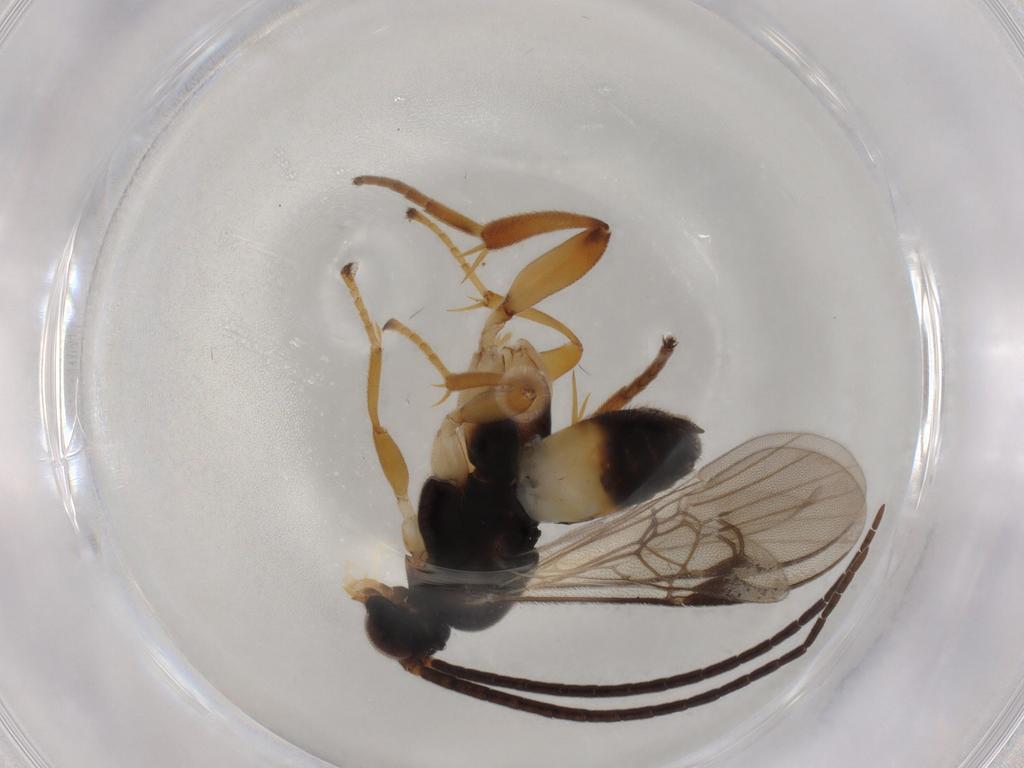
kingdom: Animalia
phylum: Arthropoda
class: Insecta
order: Hymenoptera
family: Braconidae
